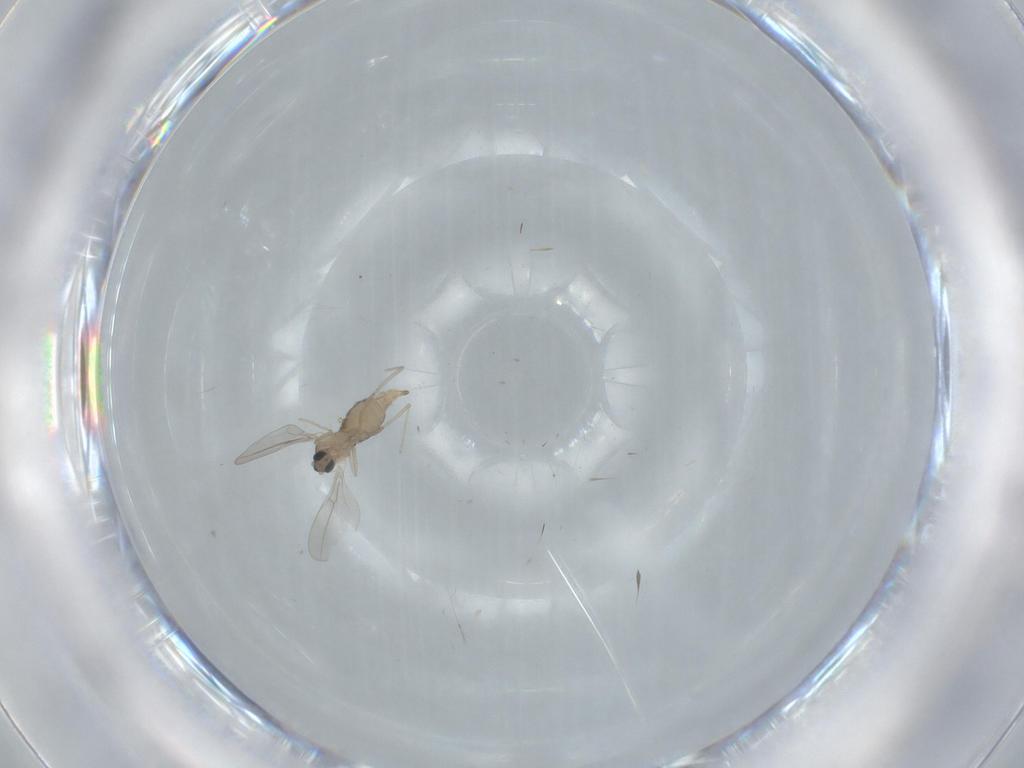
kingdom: Animalia
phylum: Arthropoda
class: Insecta
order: Diptera
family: Cecidomyiidae
